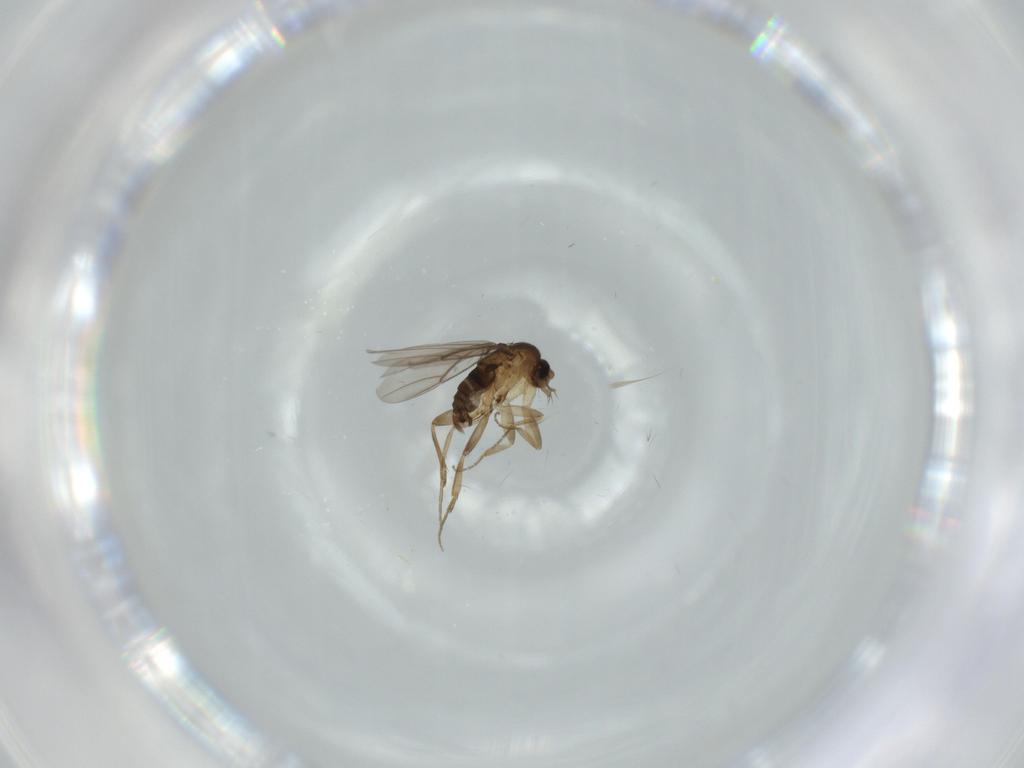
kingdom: Animalia
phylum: Arthropoda
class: Insecta
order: Diptera
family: Phoridae
